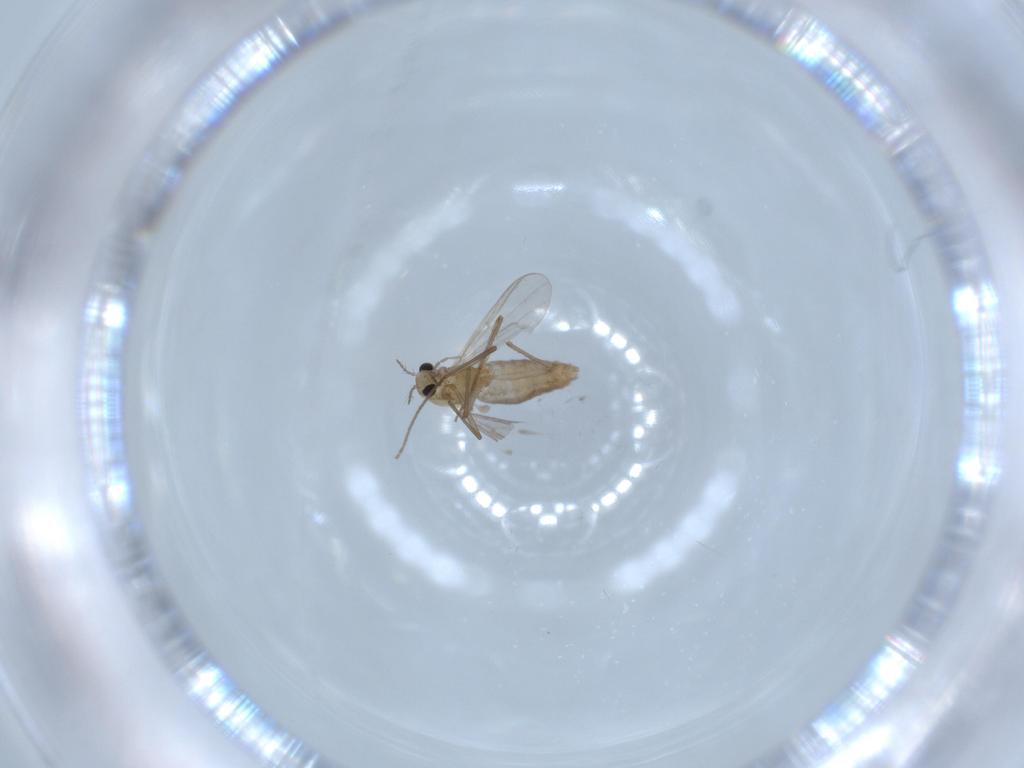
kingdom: Animalia
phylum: Arthropoda
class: Insecta
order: Diptera
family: Chironomidae
